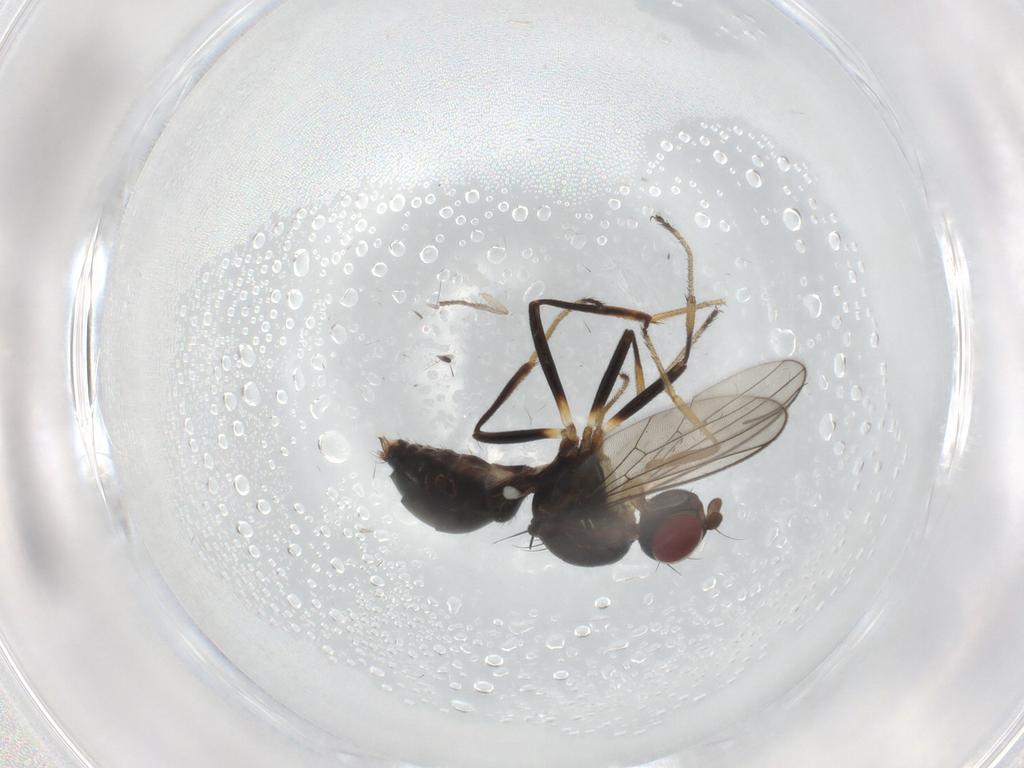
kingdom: Animalia
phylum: Arthropoda
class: Insecta
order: Diptera
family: Sepsidae
